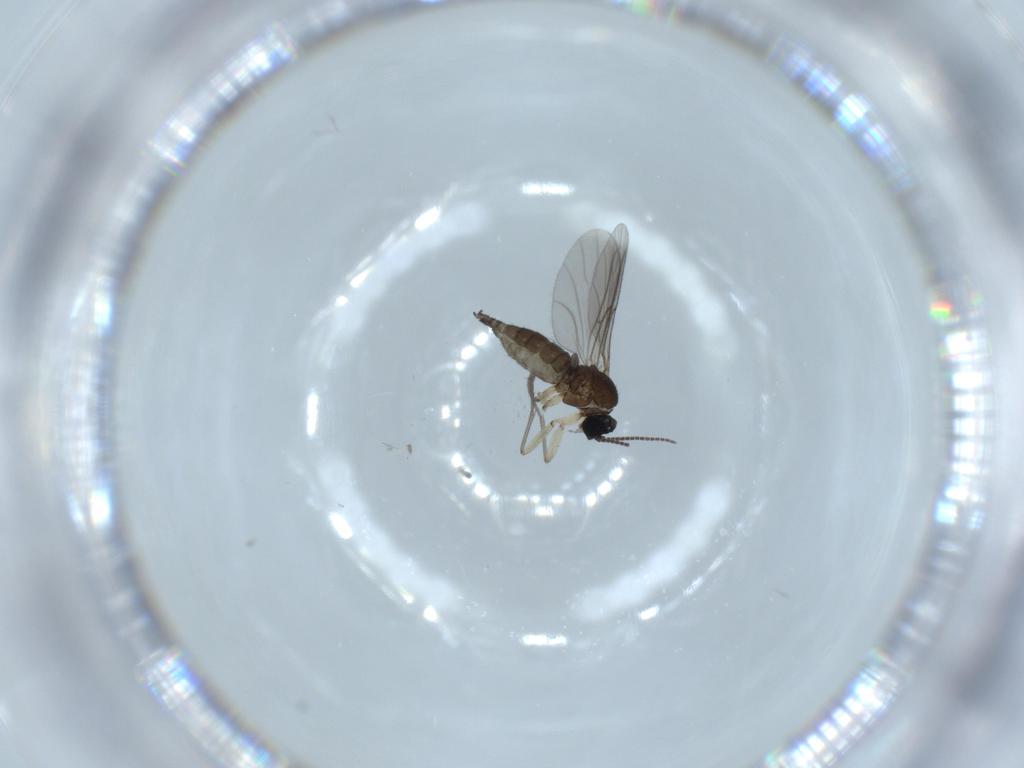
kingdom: Animalia
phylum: Arthropoda
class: Insecta
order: Diptera
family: Sciaridae
